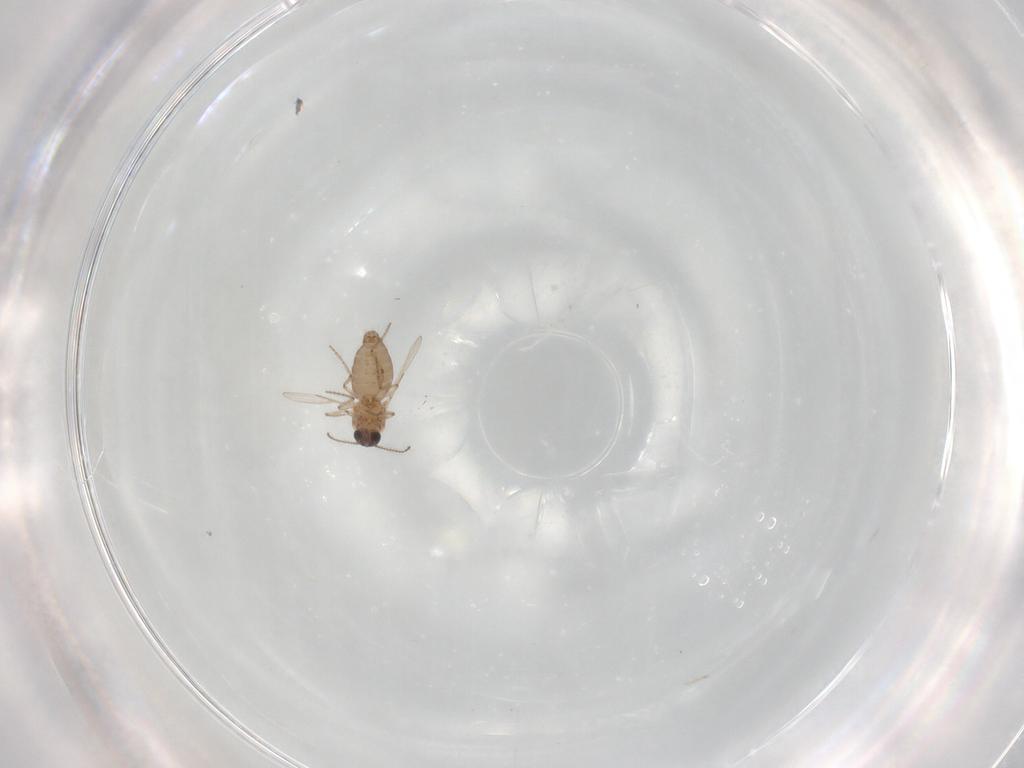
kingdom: Animalia
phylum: Arthropoda
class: Insecta
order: Diptera
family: Ceratopogonidae
